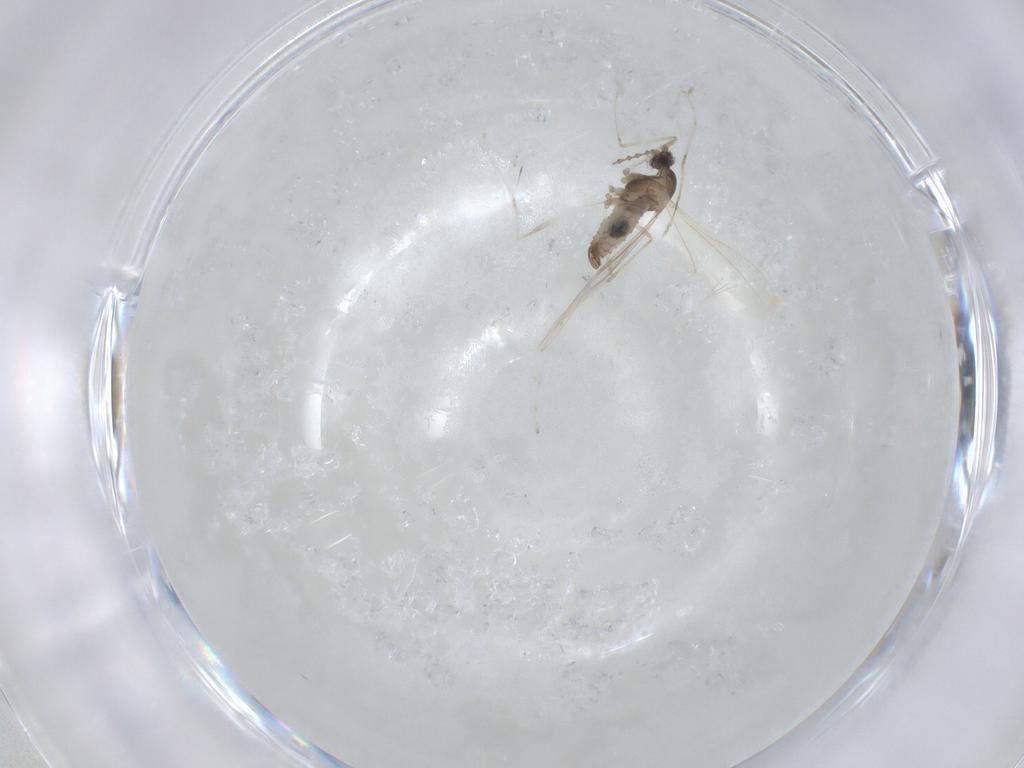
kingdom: Animalia
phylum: Arthropoda
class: Insecta
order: Diptera
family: Cecidomyiidae
